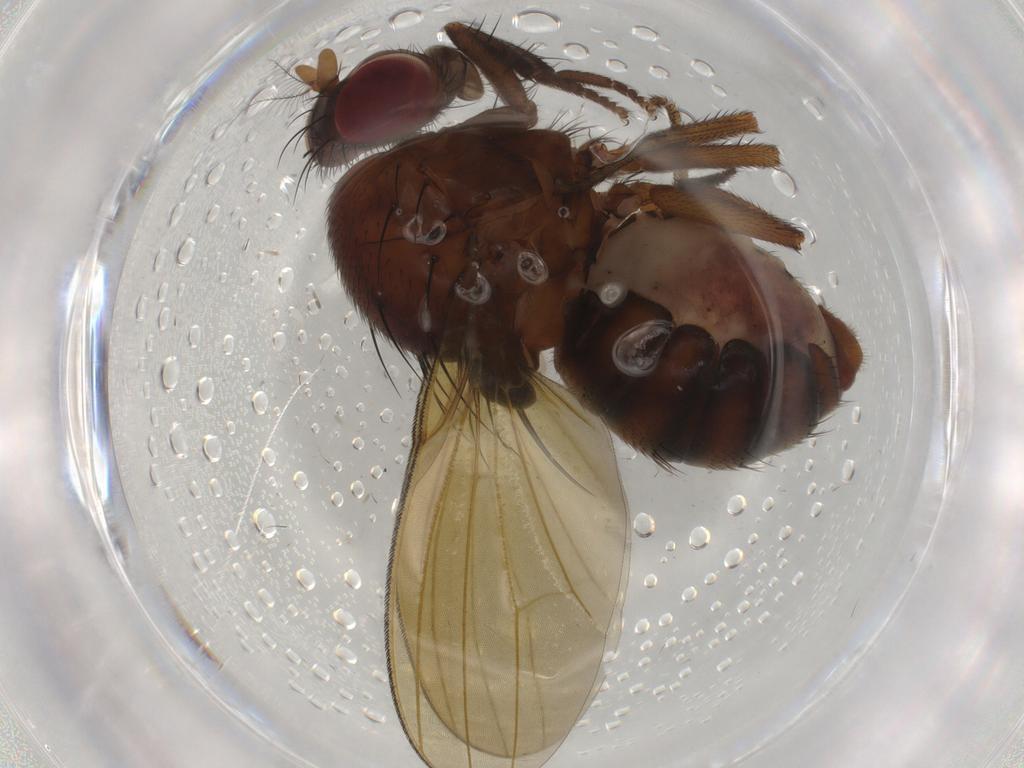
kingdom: Animalia
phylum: Arthropoda
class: Insecta
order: Diptera
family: Lauxaniidae
